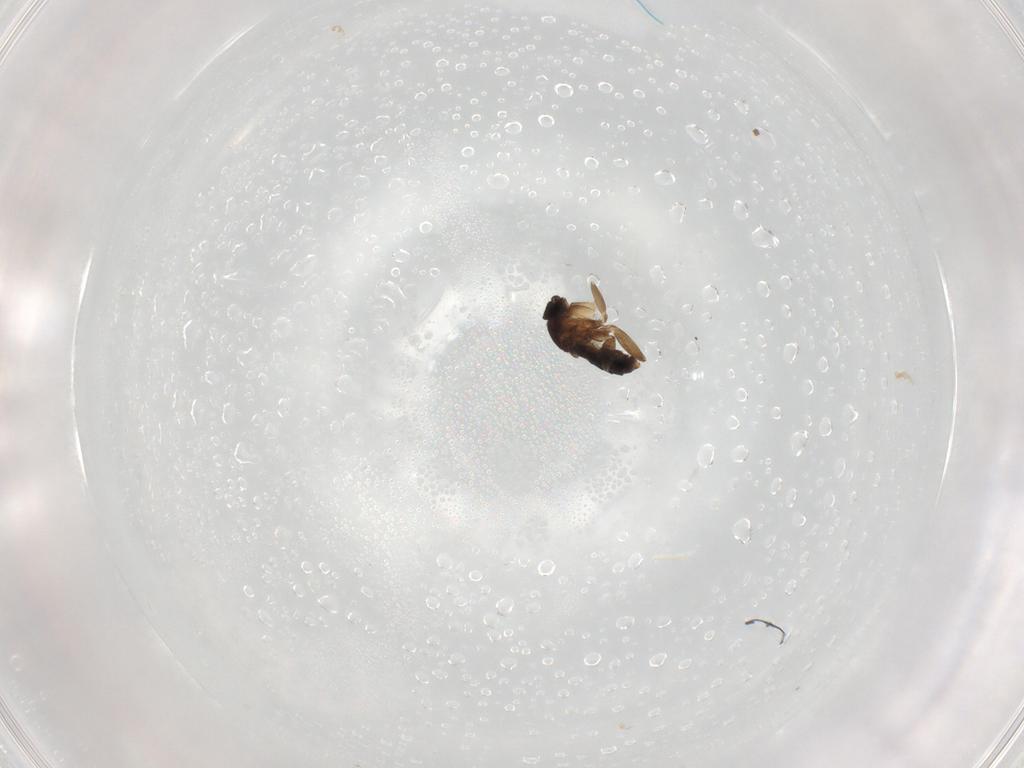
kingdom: Animalia
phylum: Arthropoda
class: Insecta
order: Diptera
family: Phoridae
